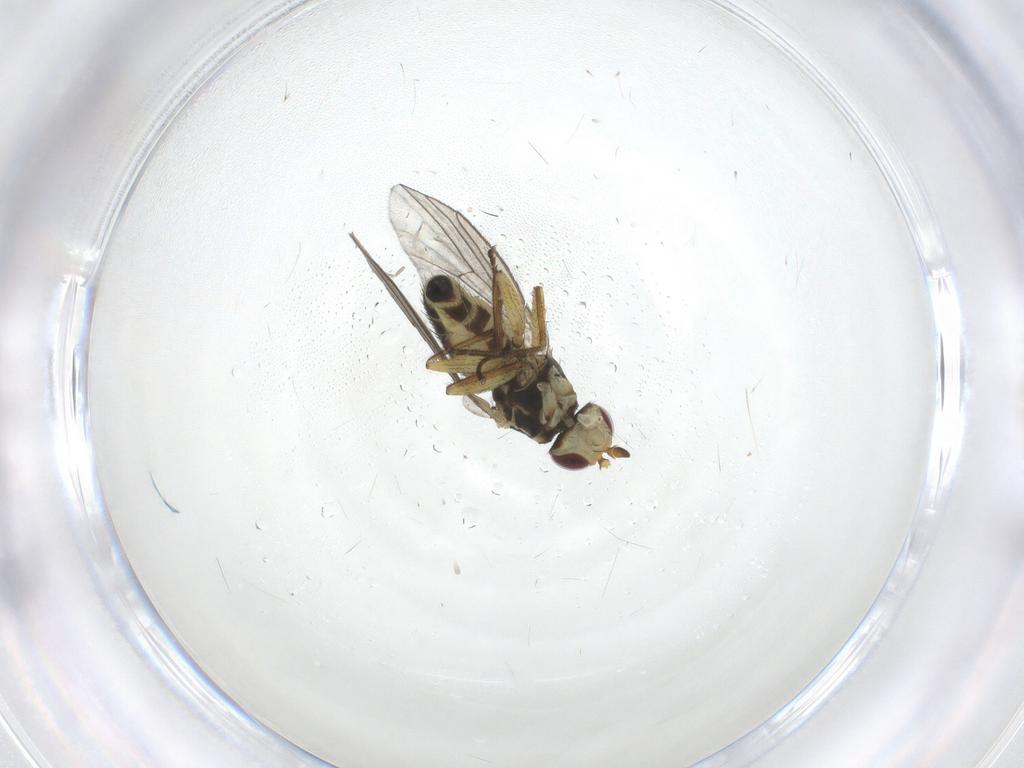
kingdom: Animalia
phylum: Arthropoda
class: Insecta
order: Diptera
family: Agromyzidae
